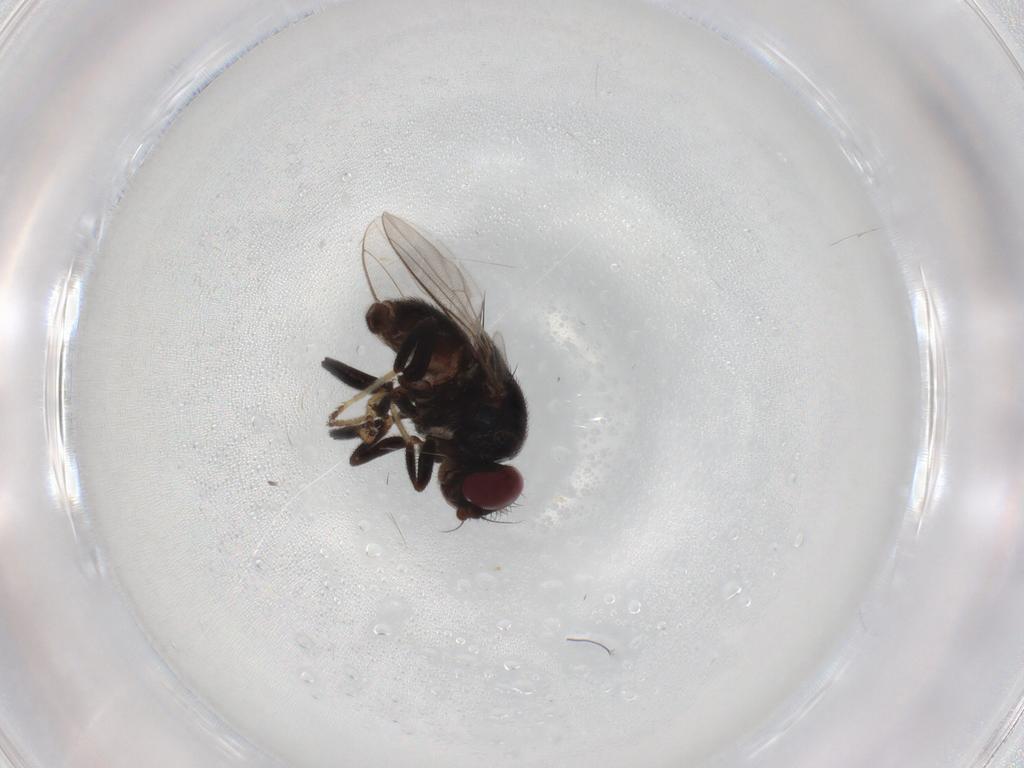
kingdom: Animalia
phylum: Arthropoda
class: Insecta
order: Diptera
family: Chloropidae
